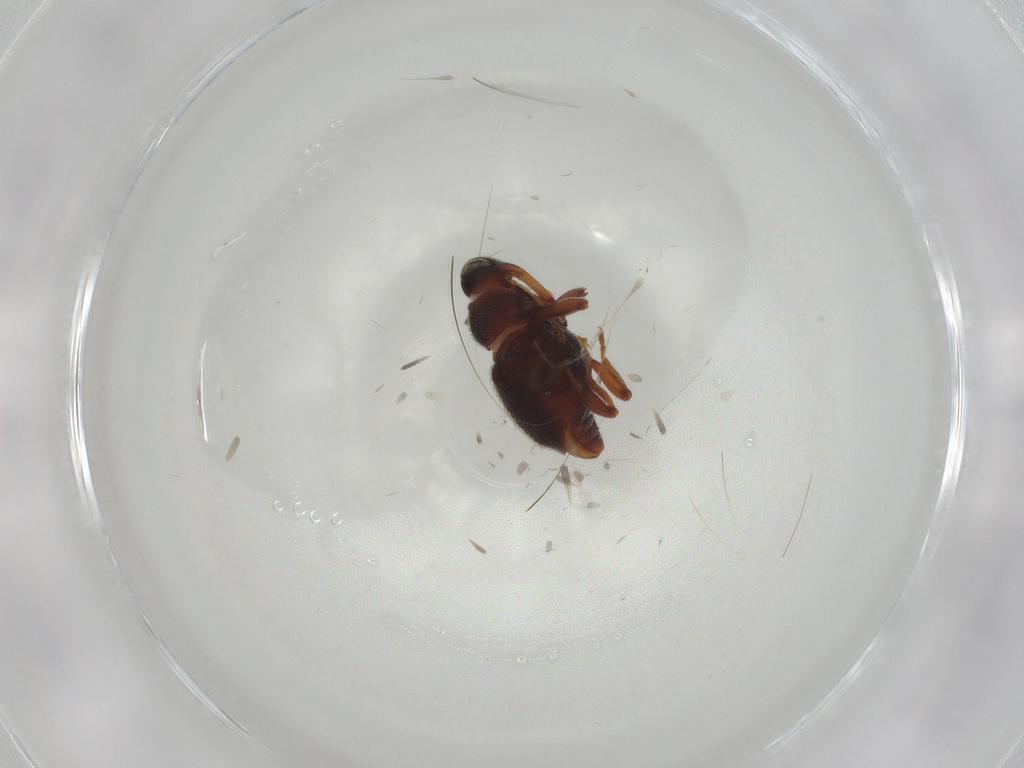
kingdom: Animalia
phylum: Arthropoda
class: Insecta
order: Coleoptera
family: Curculionidae
